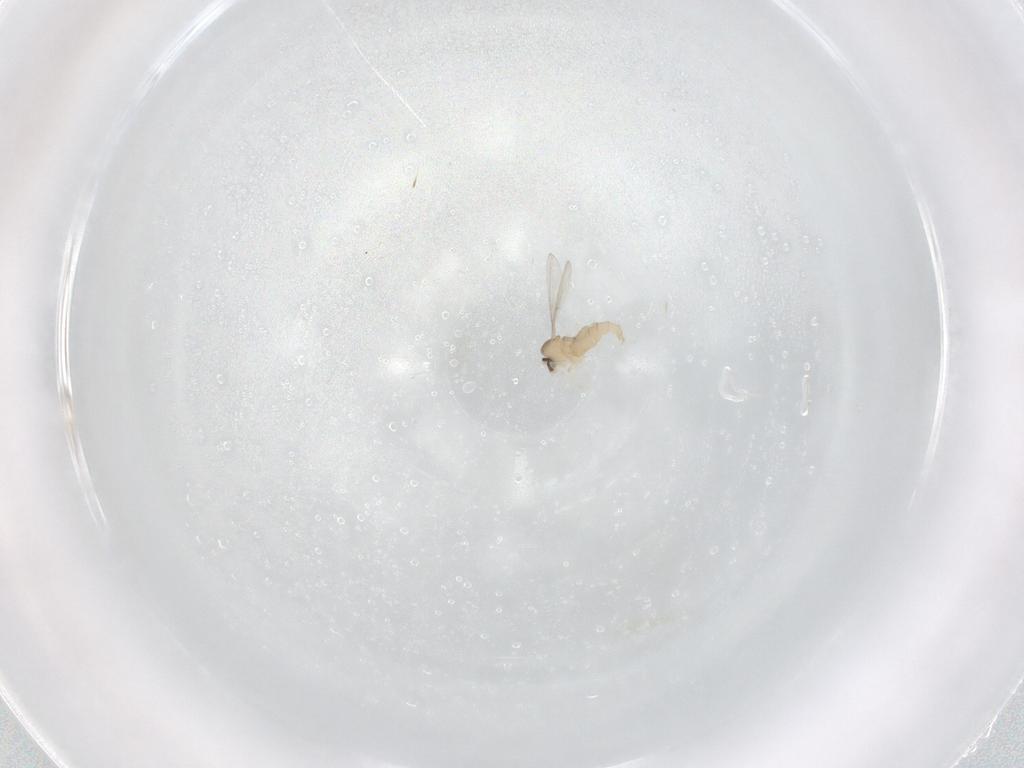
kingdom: Animalia
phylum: Arthropoda
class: Insecta
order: Diptera
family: Cecidomyiidae
